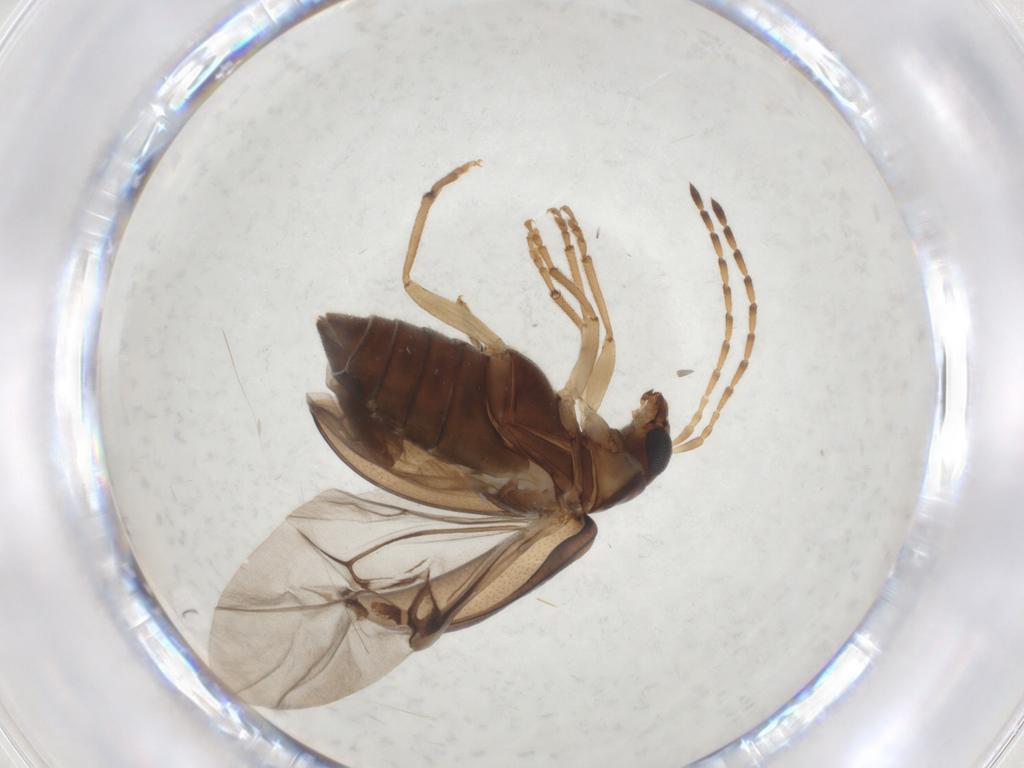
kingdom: Animalia
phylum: Arthropoda
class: Insecta
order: Coleoptera
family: Chrysomelidae
